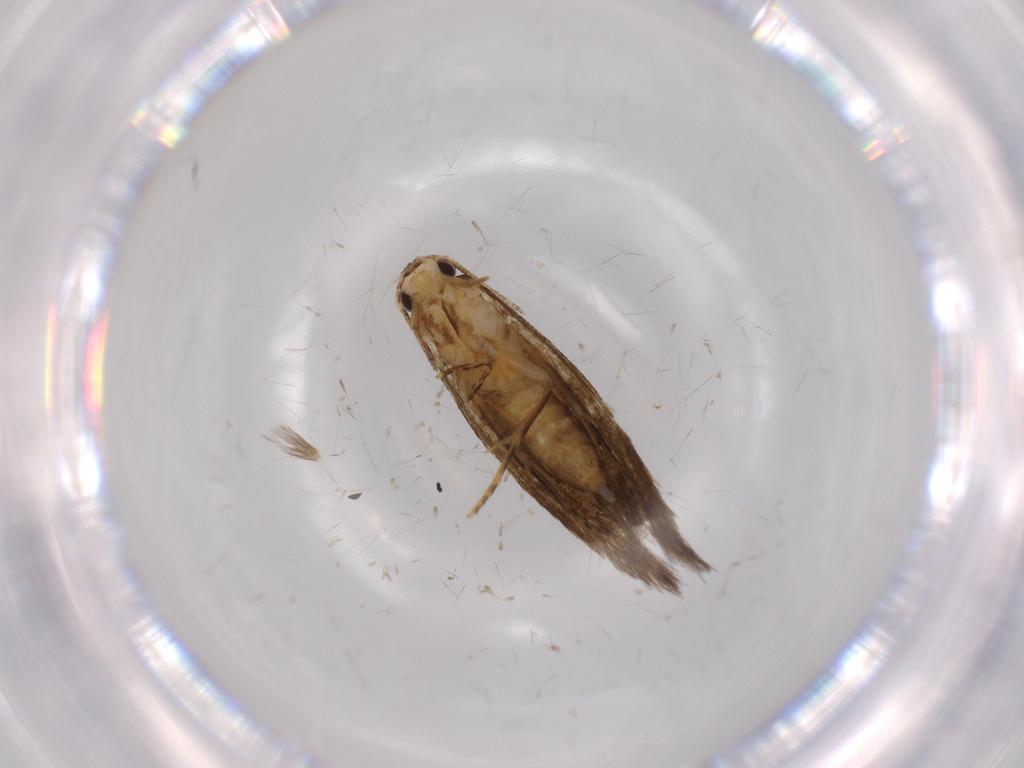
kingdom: Animalia
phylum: Arthropoda
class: Insecta
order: Lepidoptera
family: Tineidae
